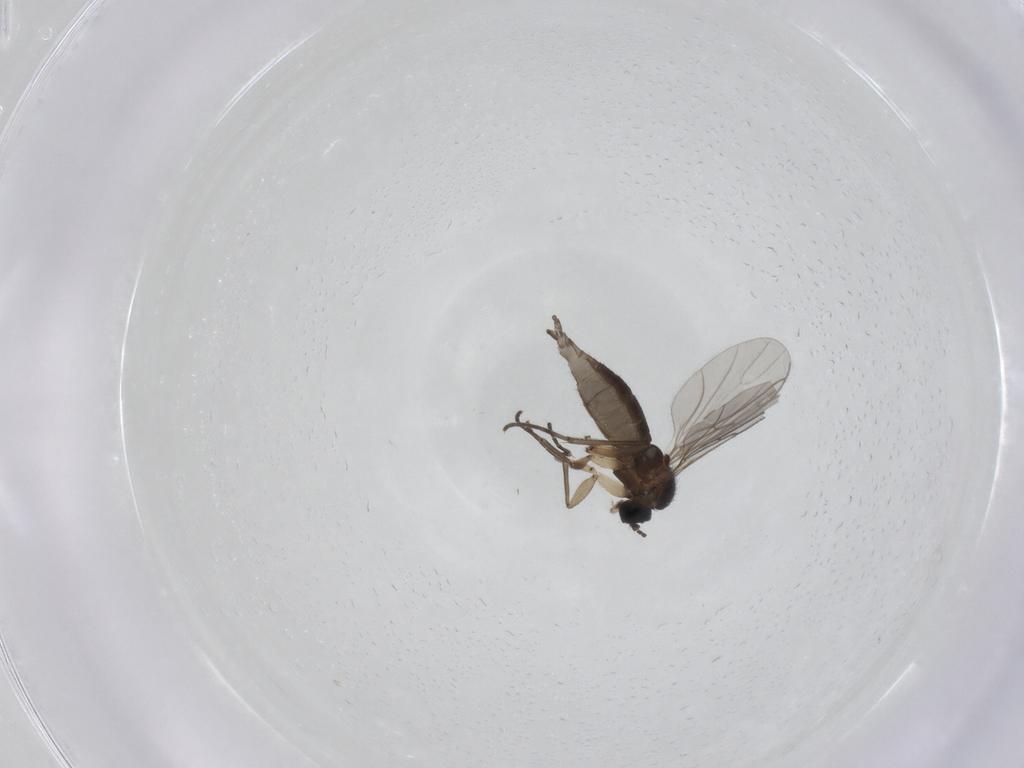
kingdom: Animalia
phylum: Arthropoda
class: Insecta
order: Diptera
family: Sciaridae
